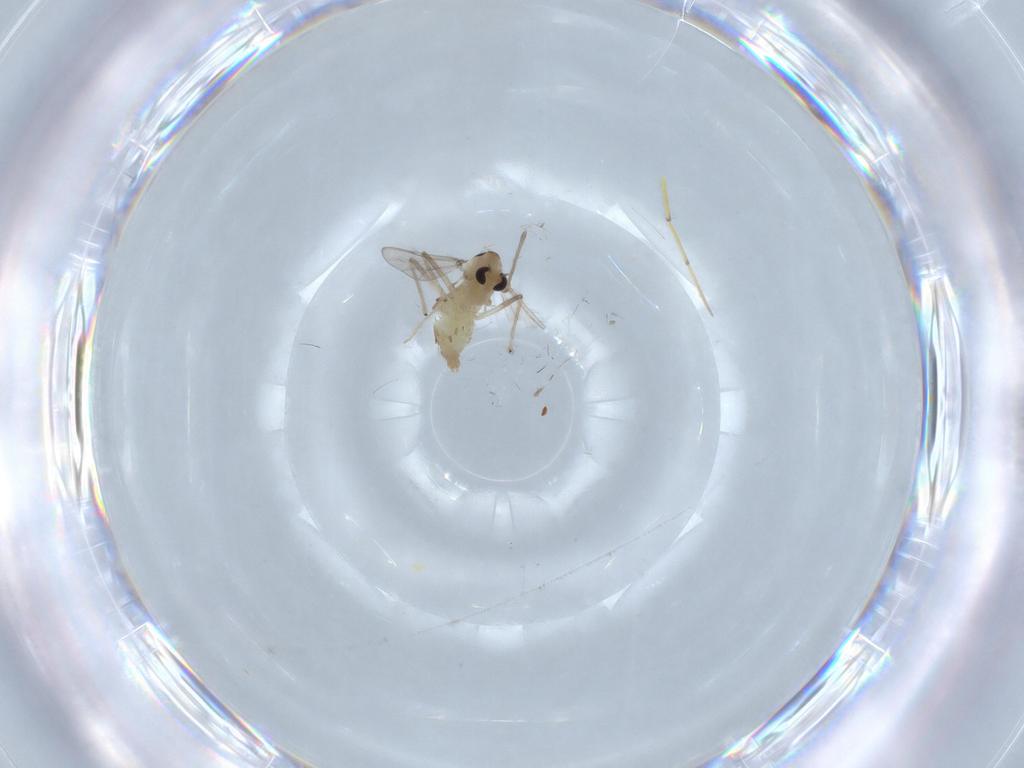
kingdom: Animalia
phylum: Arthropoda
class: Insecta
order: Diptera
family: Chironomidae
